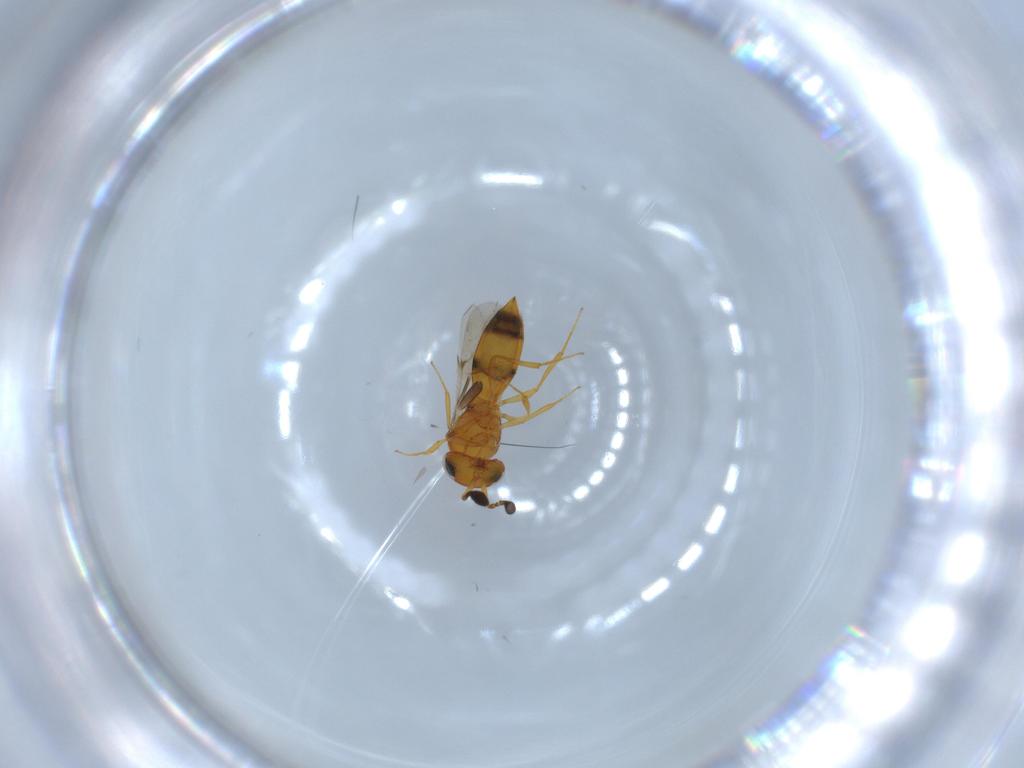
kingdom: Animalia
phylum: Arthropoda
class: Insecta
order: Hymenoptera
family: Scelionidae
